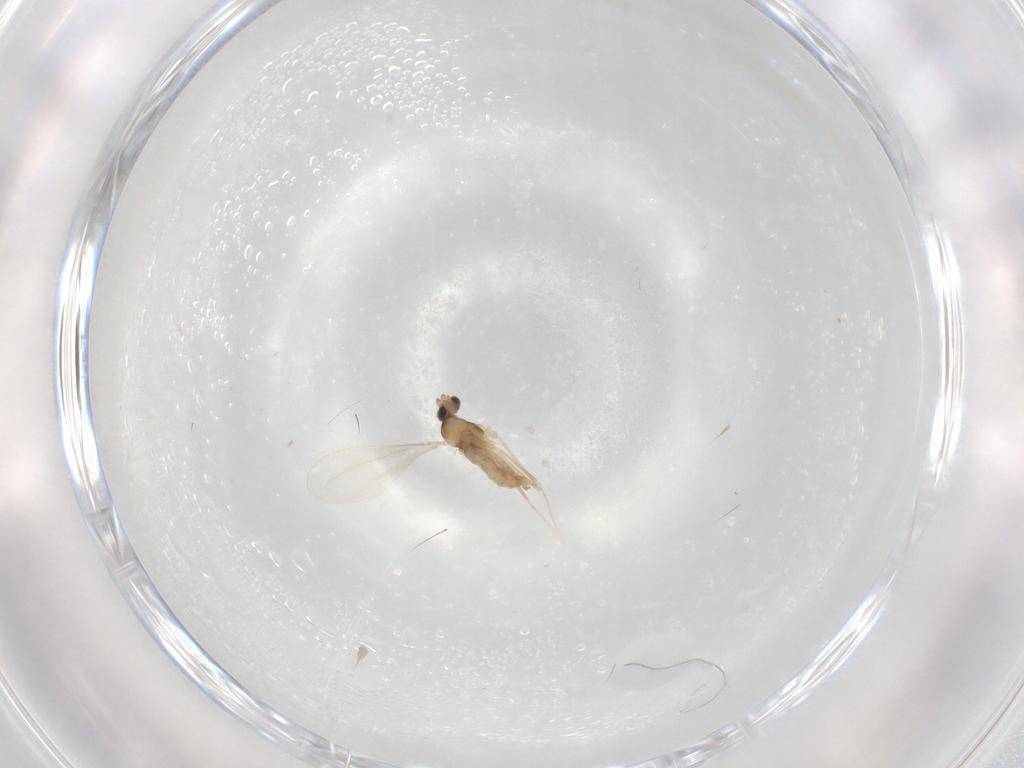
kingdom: Animalia
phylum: Arthropoda
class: Insecta
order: Diptera
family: Cecidomyiidae
